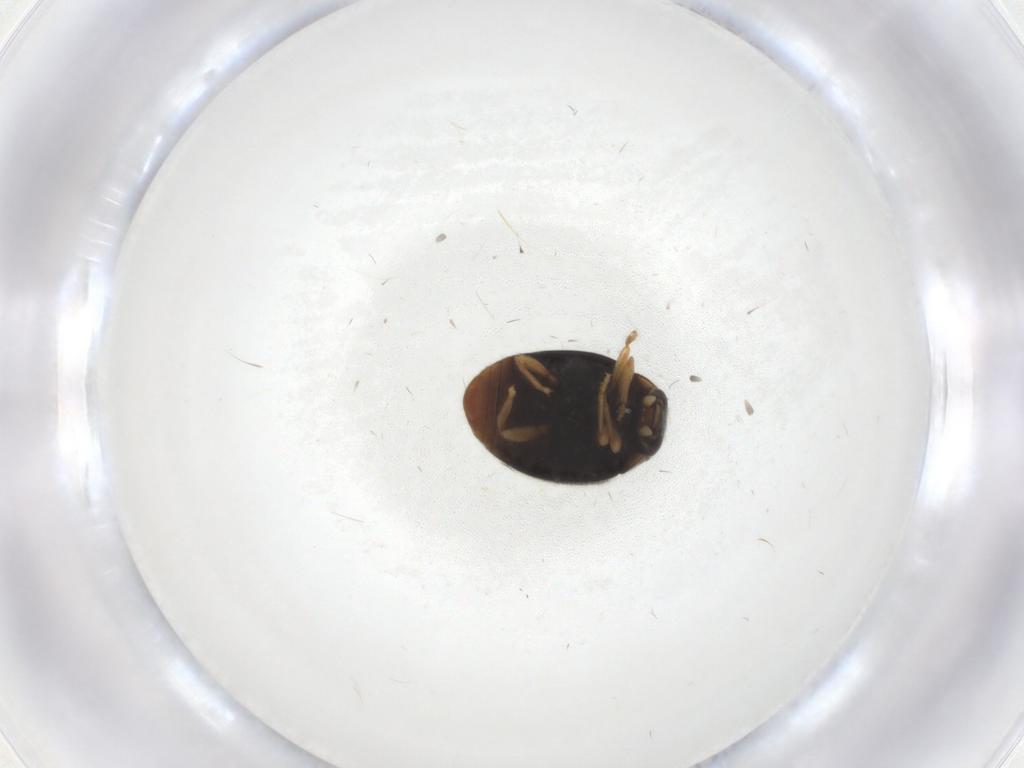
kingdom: Animalia
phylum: Arthropoda
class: Insecta
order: Coleoptera
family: Coccinellidae
